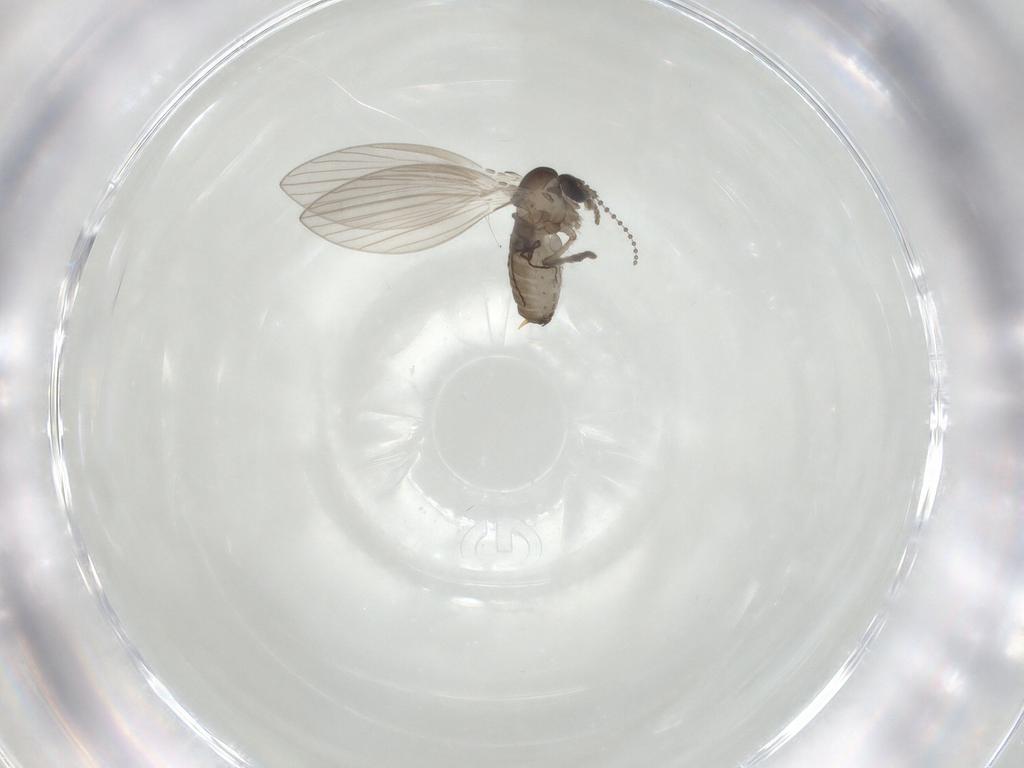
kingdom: Animalia
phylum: Arthropoda
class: Insecta
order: Diptera
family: Psychodidae
